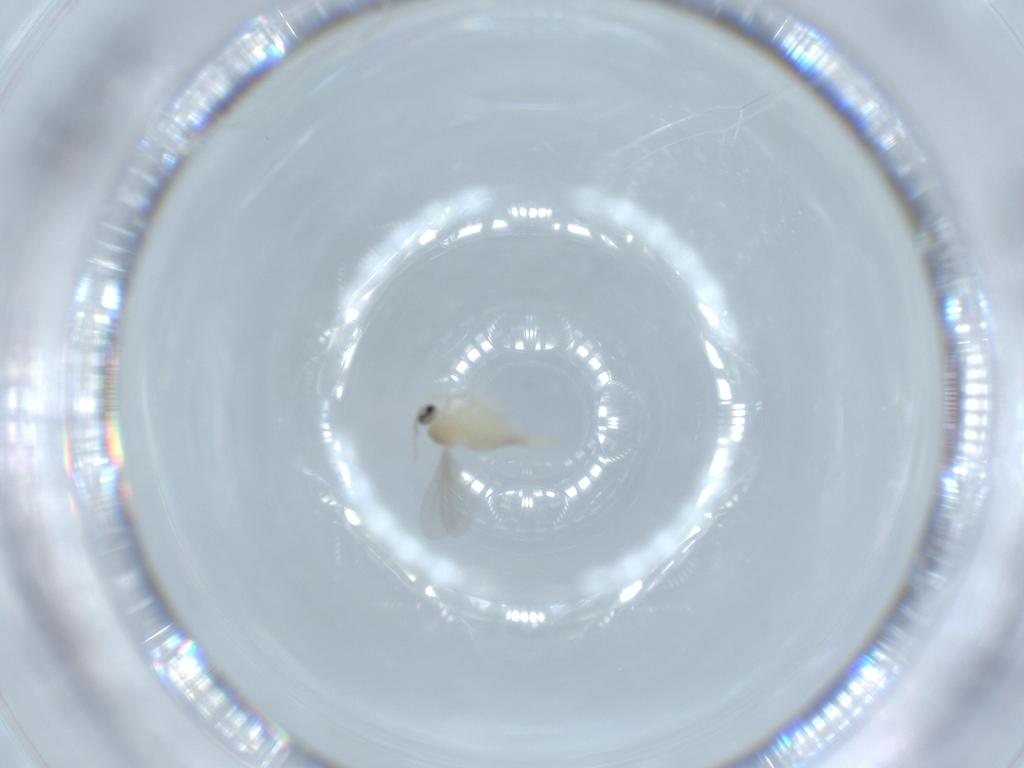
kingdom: Animalia
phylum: Arthropoda
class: Insecta
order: Diptera
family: Cecidomyiidae
